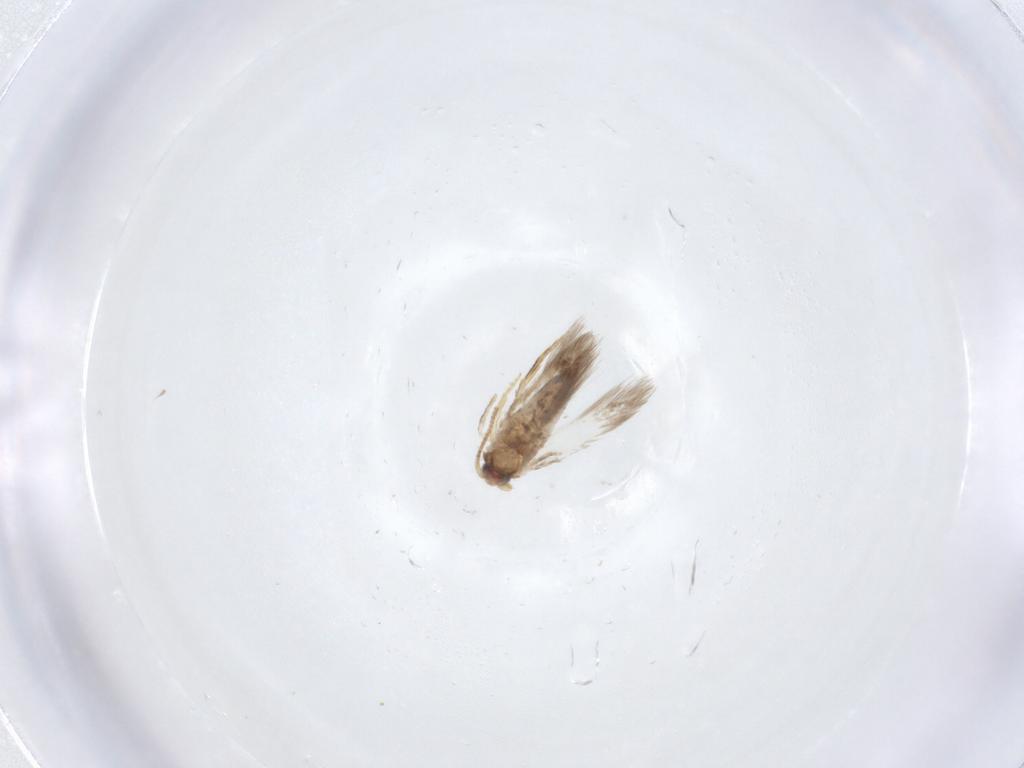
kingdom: Animalia
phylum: Arthropoda
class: Insecta
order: Lepidoptera
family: Nepticulidae
